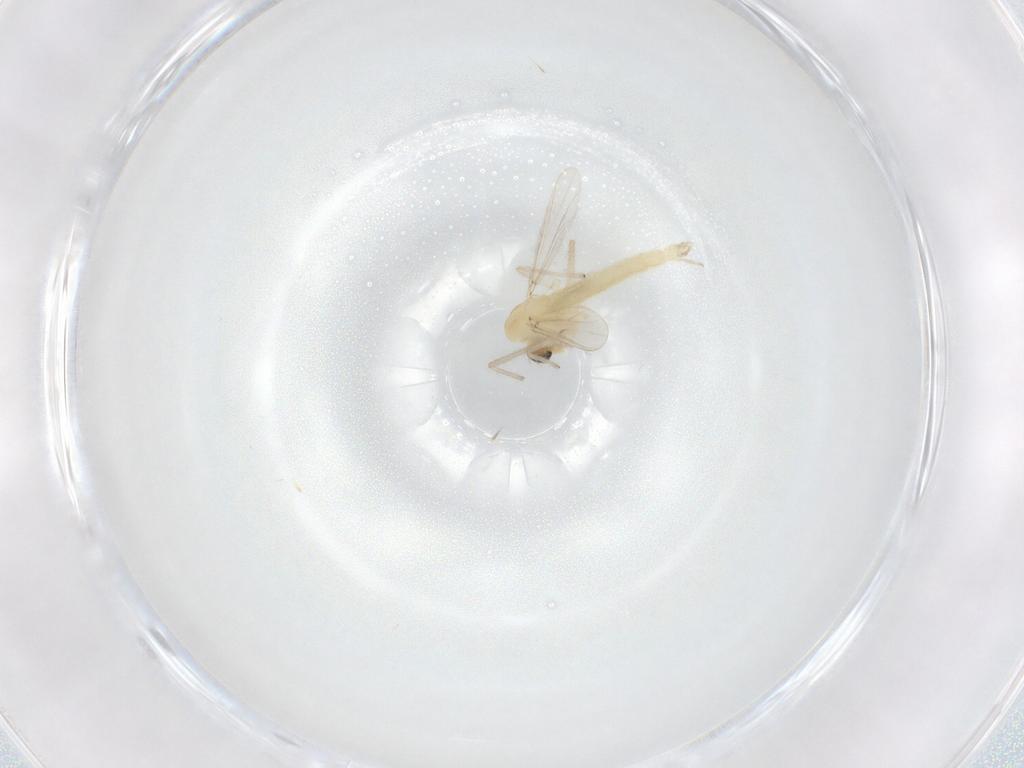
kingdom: Animalia
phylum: Arthropoda
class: Insecta
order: Diptera
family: Chironomidae
